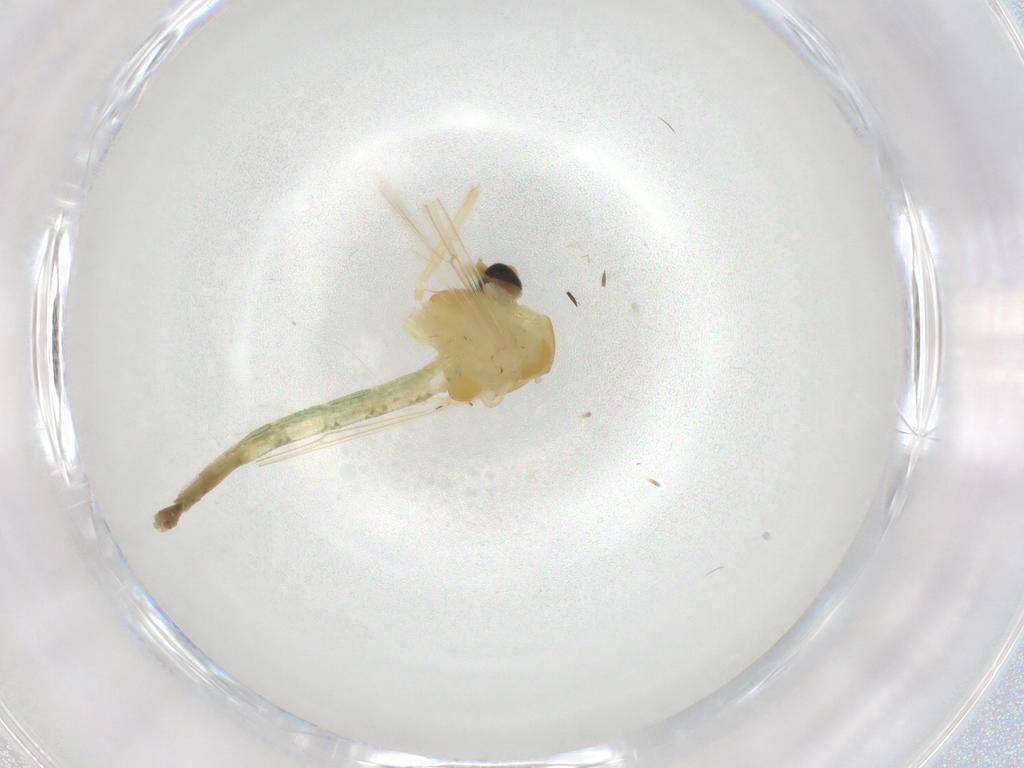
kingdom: Animalia
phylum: Arthropoda
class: Insecta
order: Diptera
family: Chironomidae
